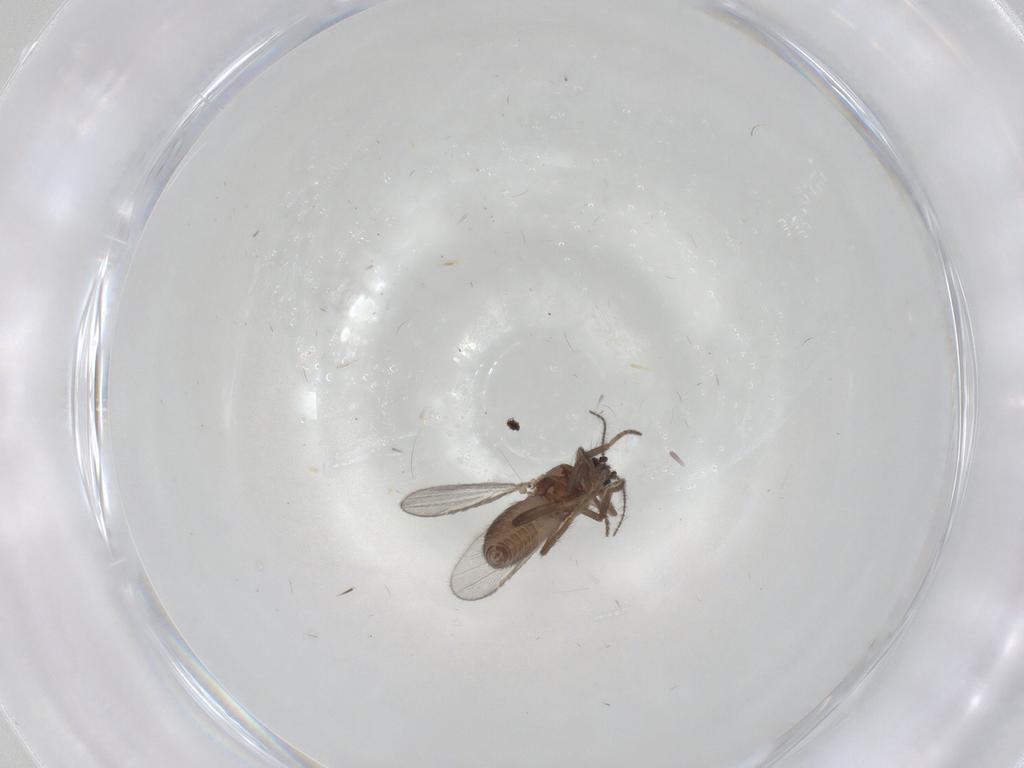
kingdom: Animalia
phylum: Arthropoda
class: Insecta
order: Diptera
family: Ceratopogonidae
